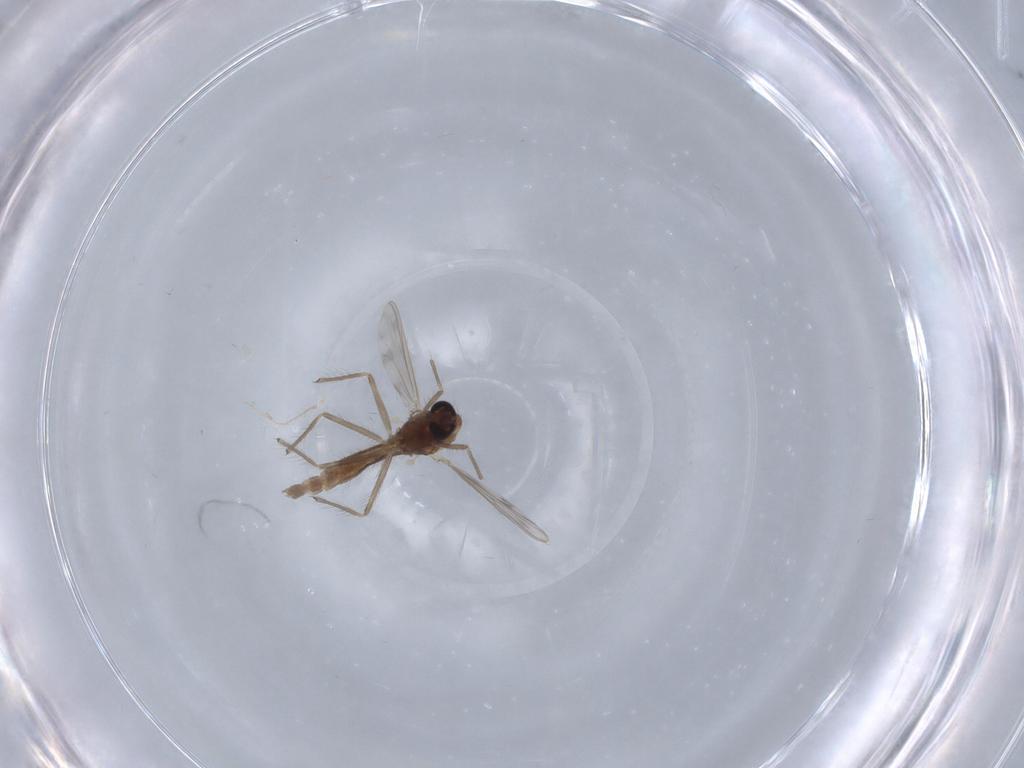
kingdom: Animalia
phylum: Arthropoda
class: Insecta
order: Diptera
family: Chironomidae
